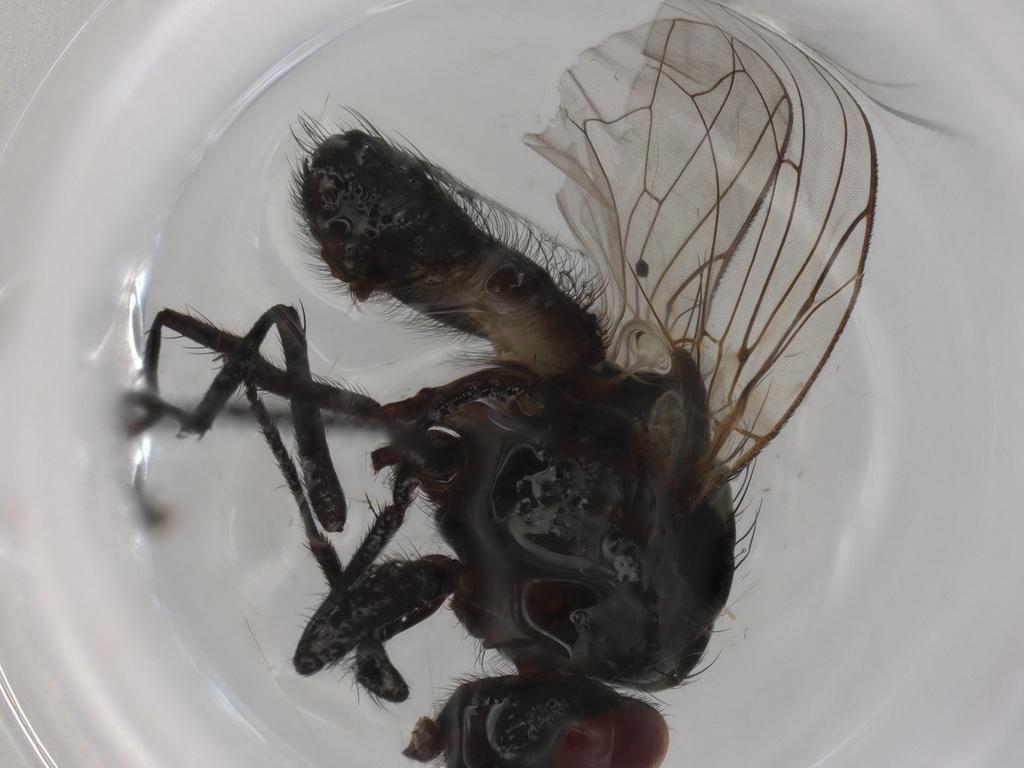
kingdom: Animalia
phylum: Arthropoda
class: Insecta
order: Diptera
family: Anthomyiidae
